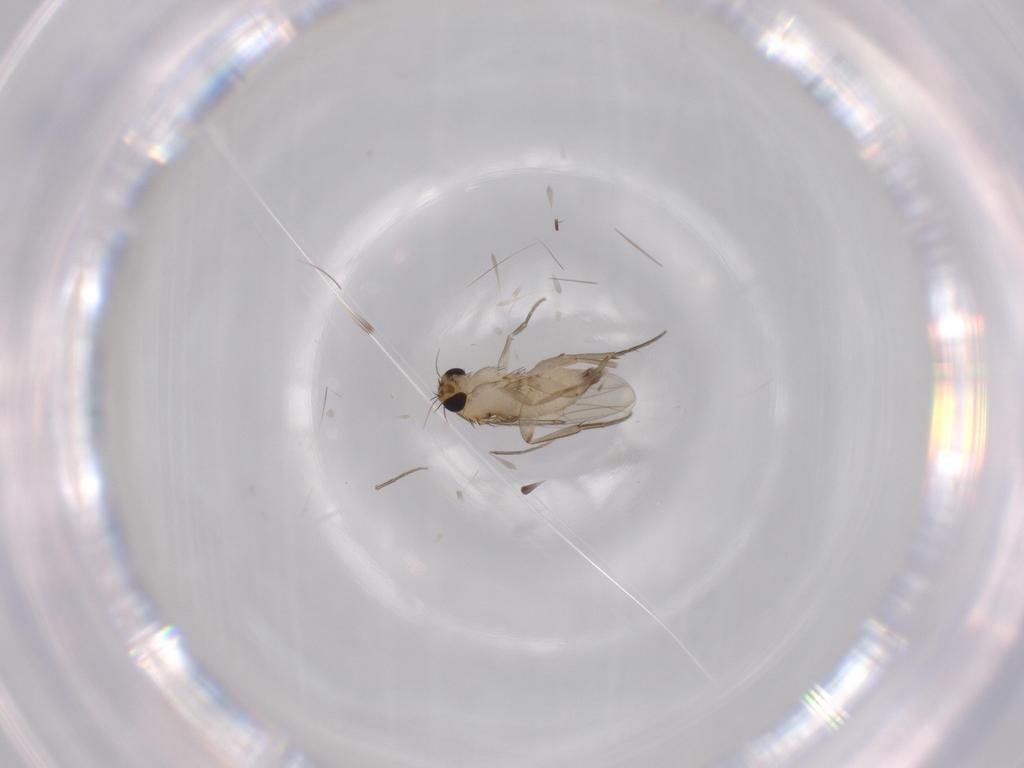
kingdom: Animalia
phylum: Arthropoda
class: Insecta
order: Diptera
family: Phoridae
